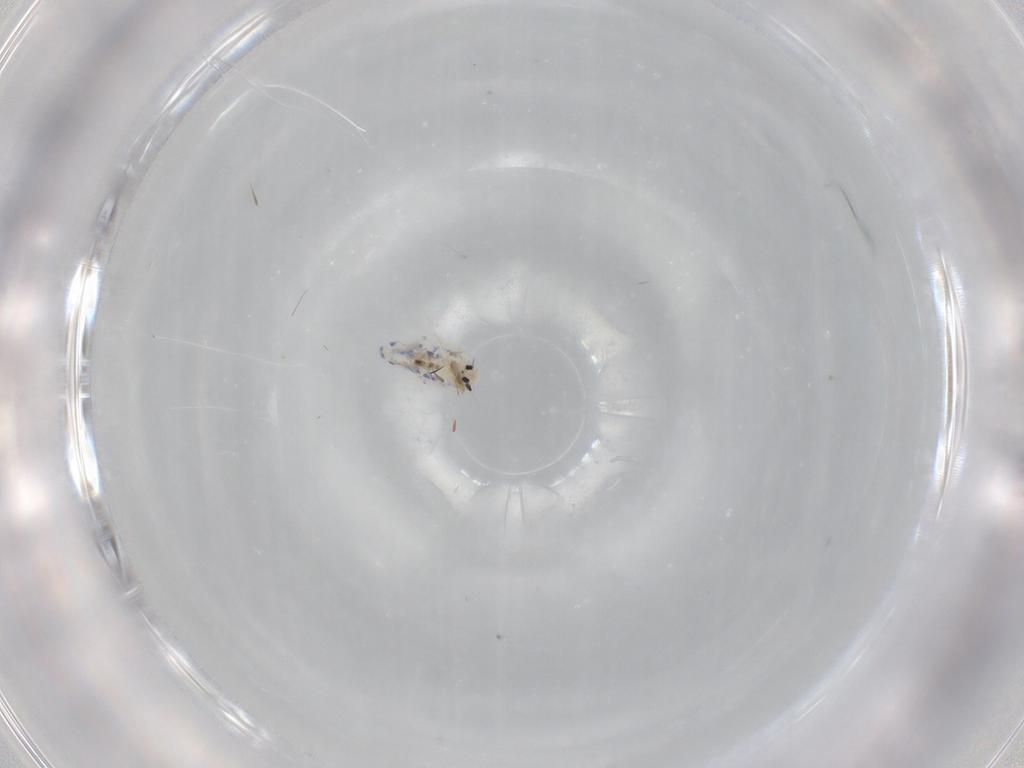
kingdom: Animalia
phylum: Arthropoda
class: Collembola
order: Entomobryomorpha
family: Entomobryidae
